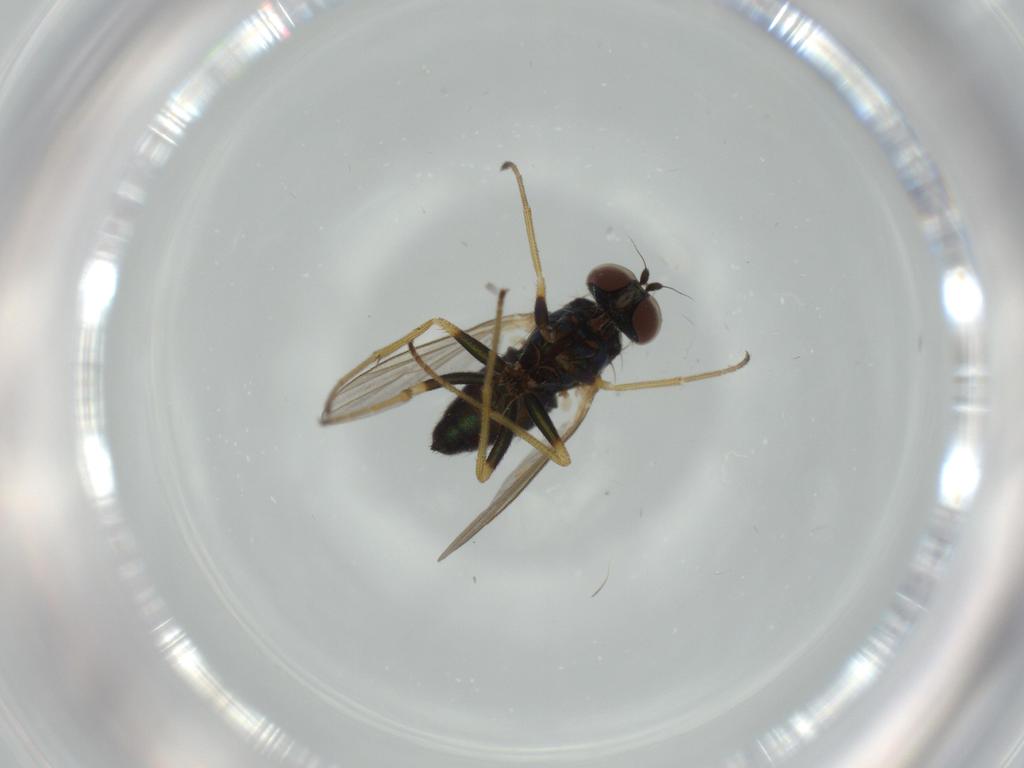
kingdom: Animalia
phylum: Arthropoda
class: Insecta
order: Diptera
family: Dolichopodidae
